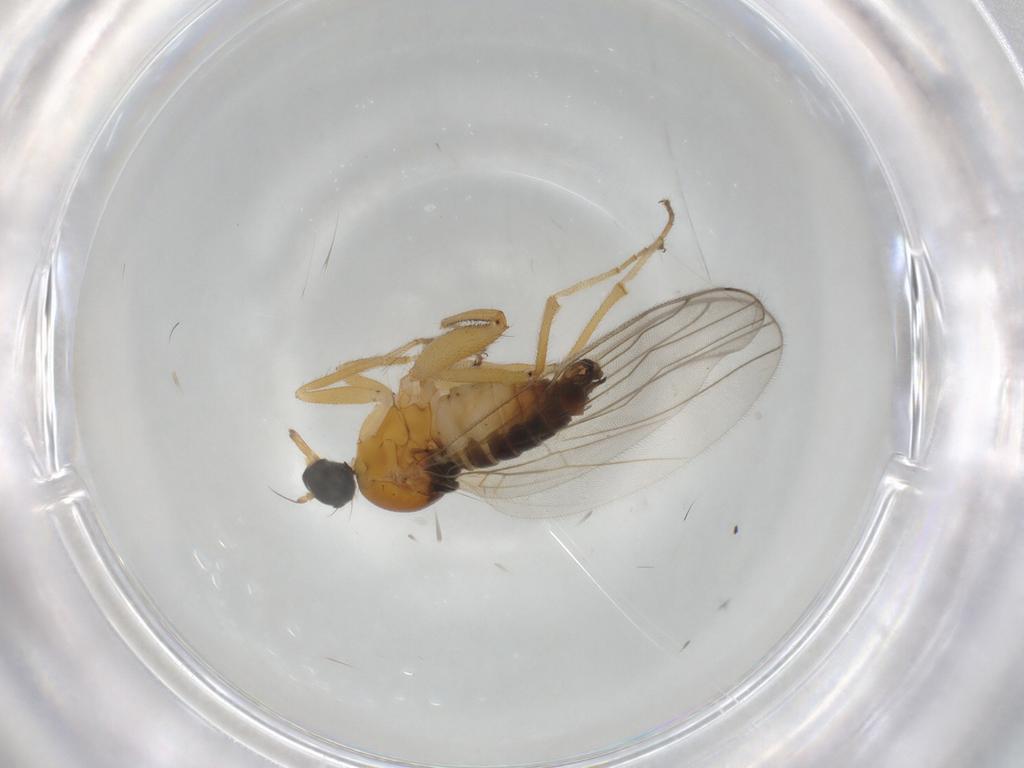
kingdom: Animalia
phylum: Arthropoda
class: Insecta
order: Diptera
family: Hybotidae
